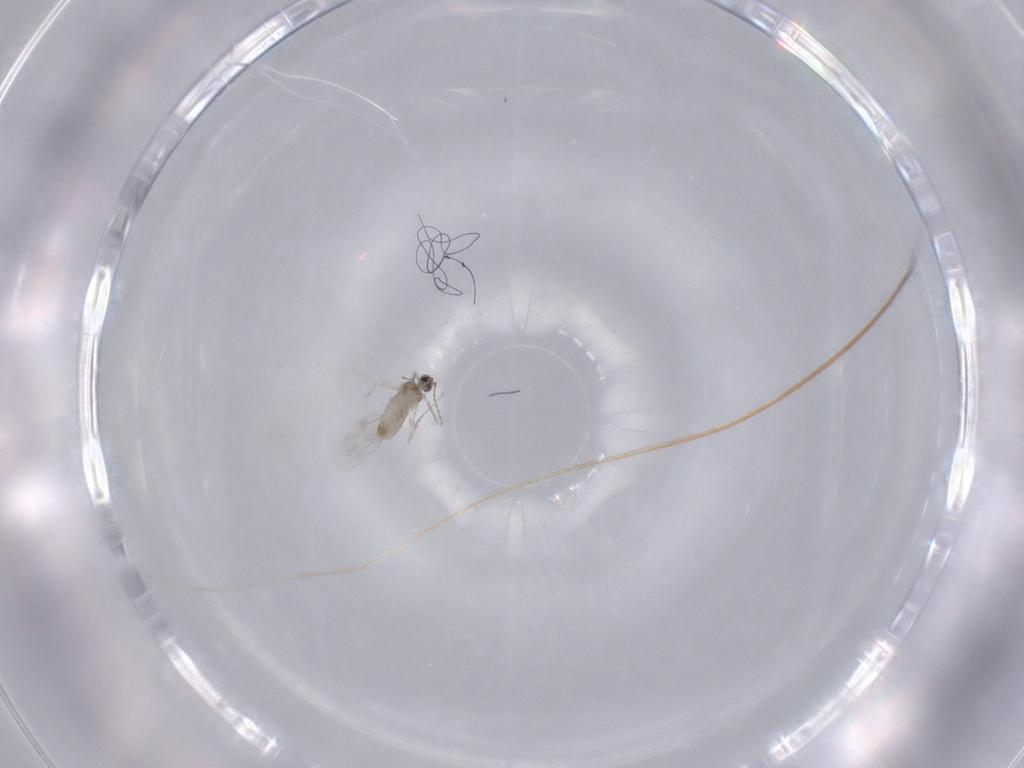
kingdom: Animalia
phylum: Arthropoda
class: Insecta
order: Diptera
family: Cecidomyiidae
